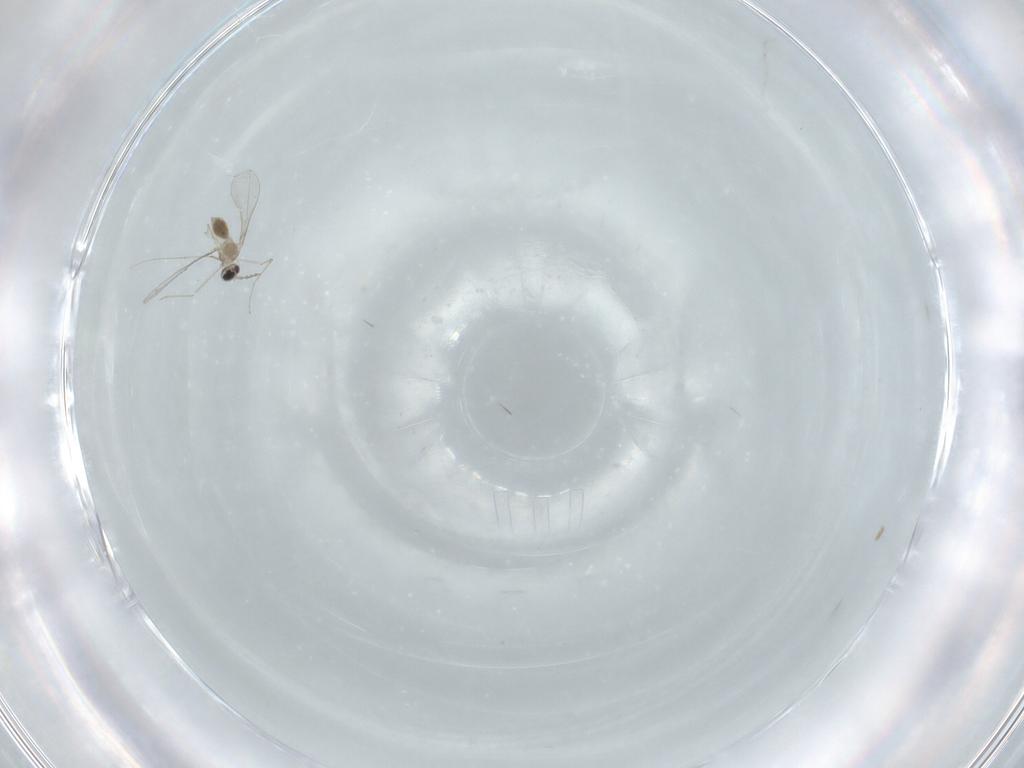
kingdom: Animalia
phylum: Arthropoda
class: Insecta
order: Diptera
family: Cecidomyiidae
